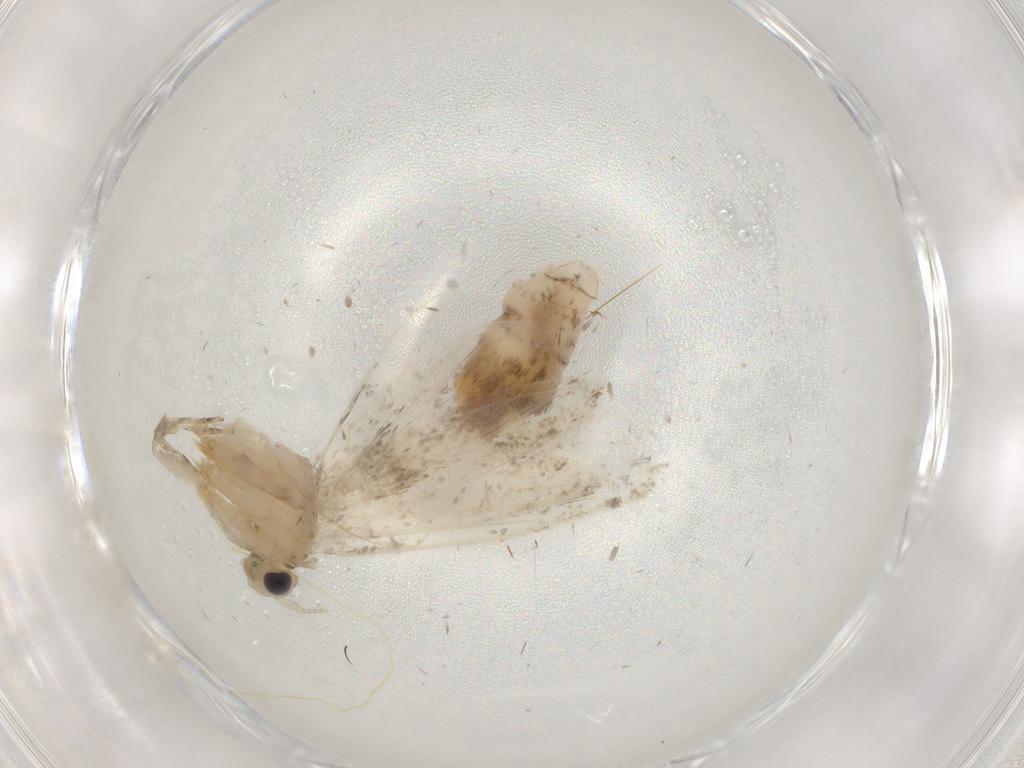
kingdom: Animalia
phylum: Arthropoda
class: Insecta
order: Lepidoptera
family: Tineidae
